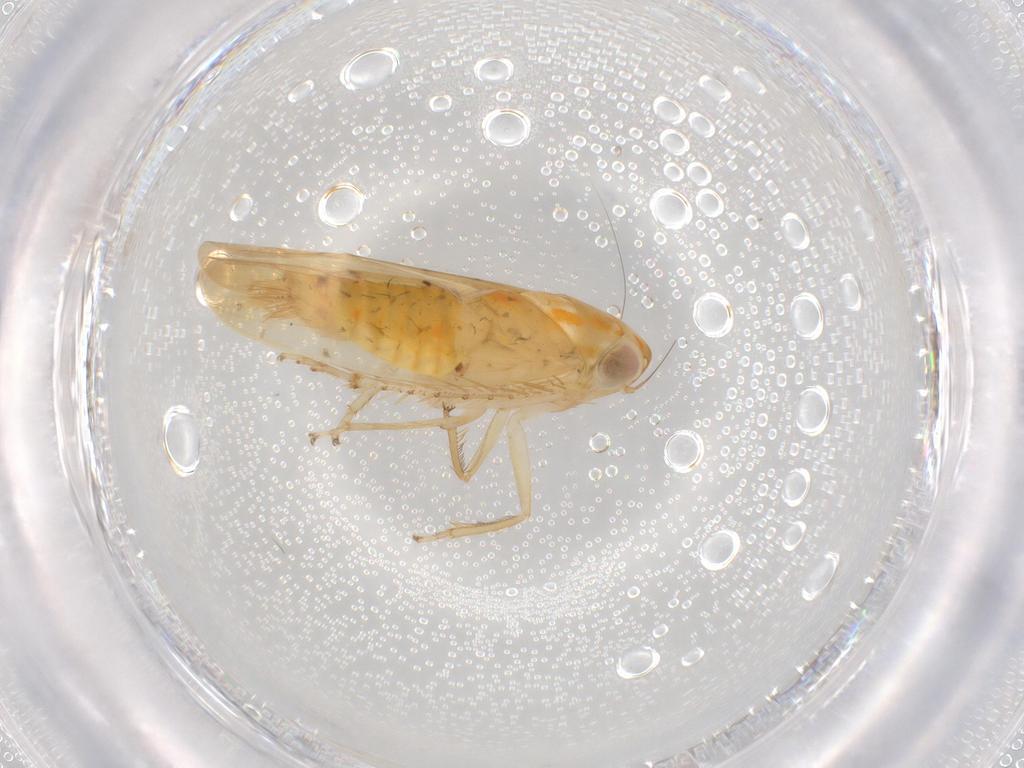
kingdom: Animalia
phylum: Arthropoda
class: Insecta
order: Hemiptera
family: Cicadellidae
